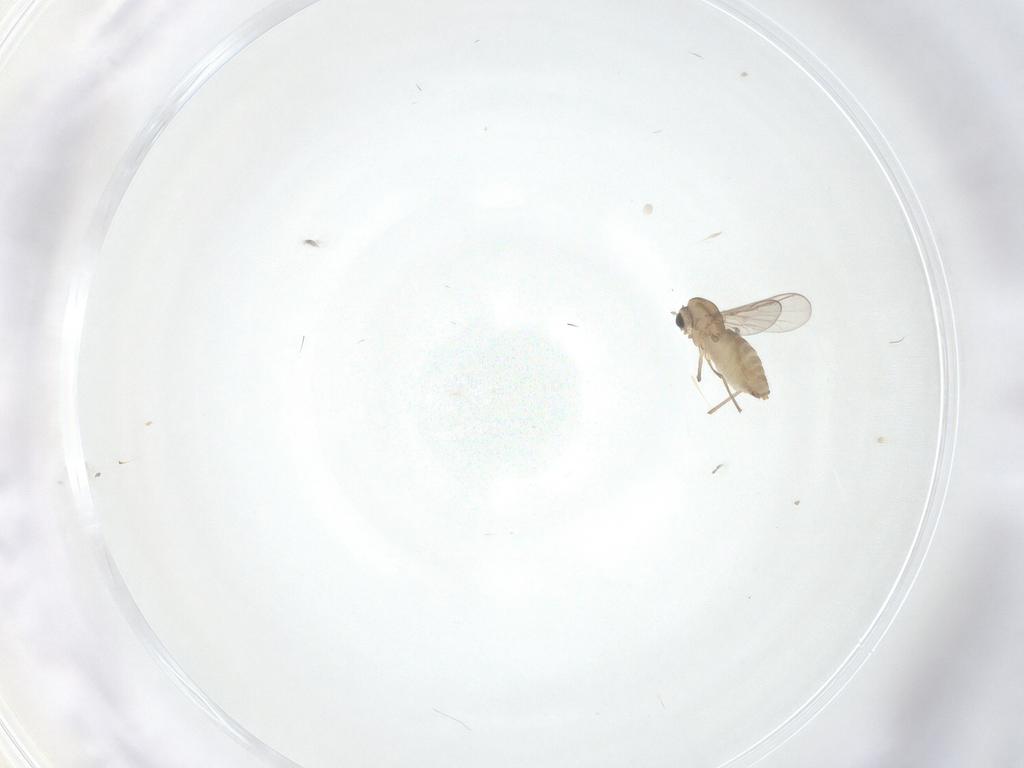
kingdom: Animalia
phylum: Arthropoda
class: Insecta
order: Diptera
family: Chironomidae
